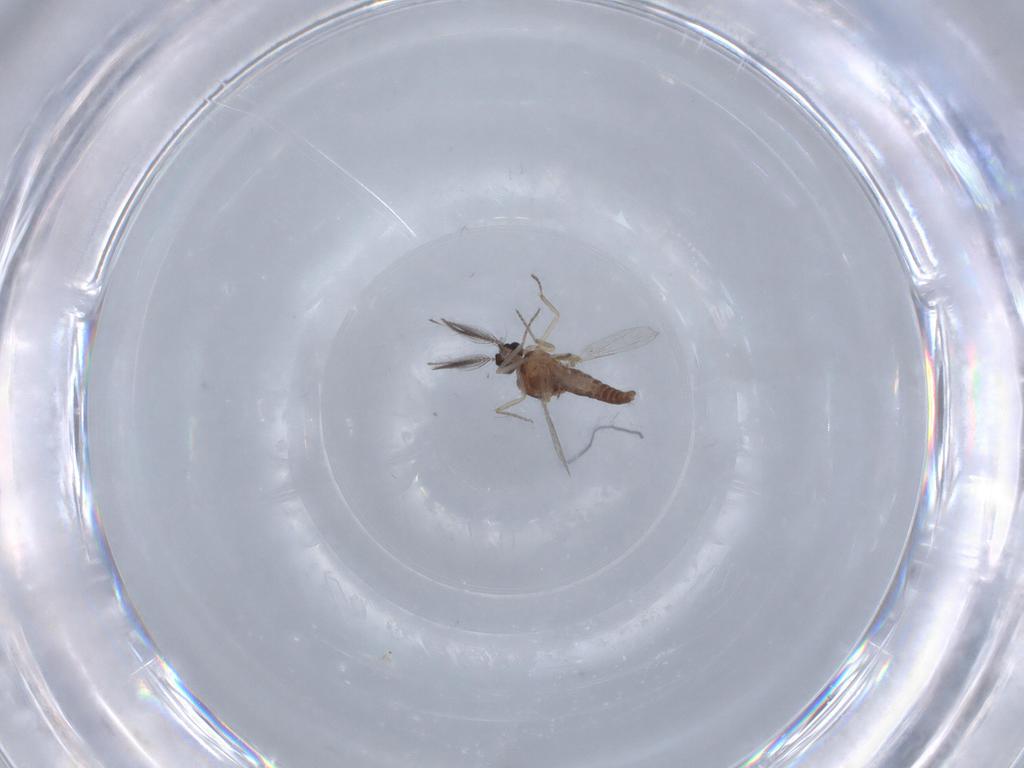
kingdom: Animalia
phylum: Arthropoda
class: Insecta
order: Diptera
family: Ceratopogonidae
